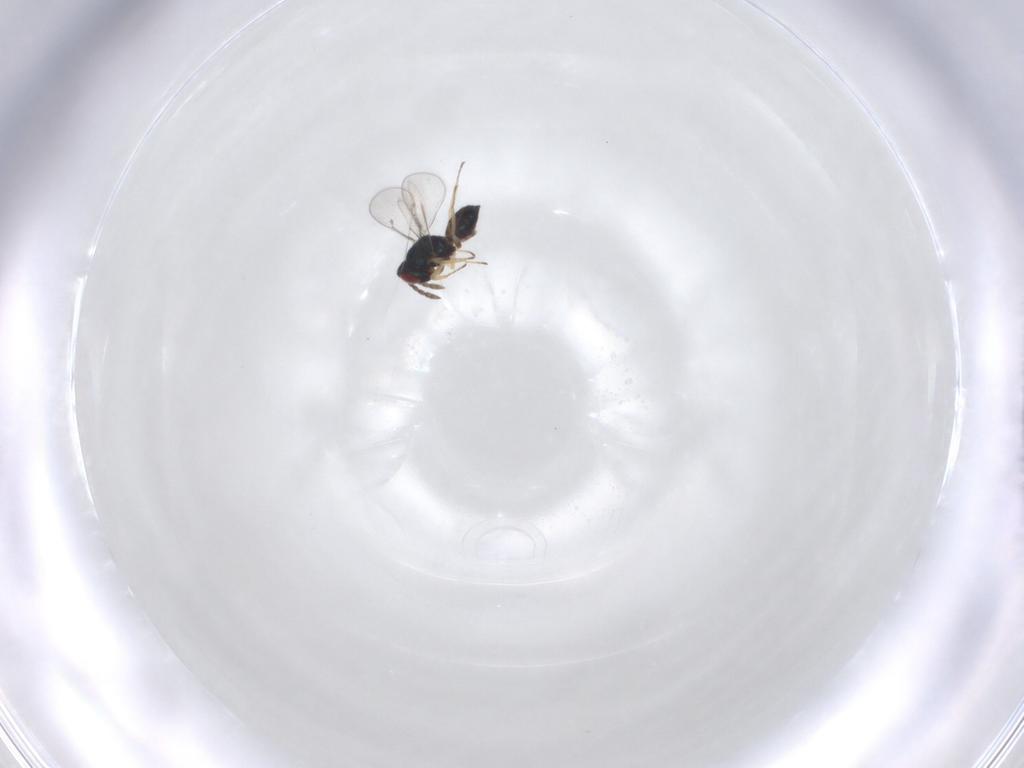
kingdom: Animalia
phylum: Arthropoda
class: Insecta
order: Hymenoptera
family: Eulophidae
